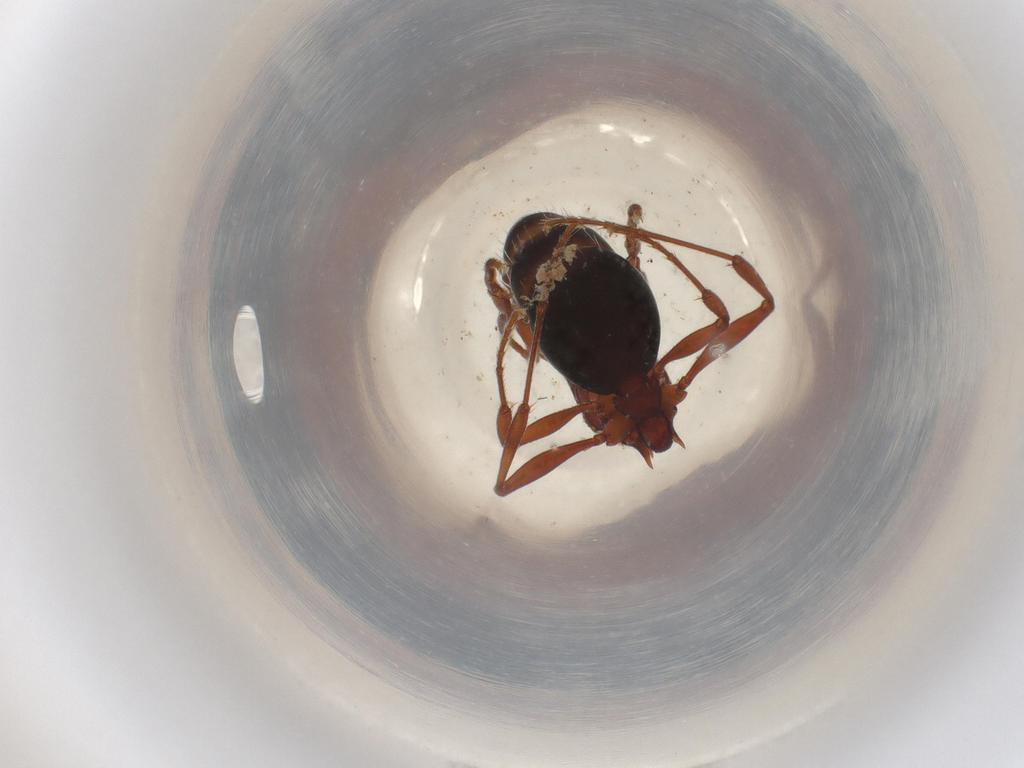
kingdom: Animalia
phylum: Arthropoda
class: Insecta
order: Hymenoptera
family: Formicidae
